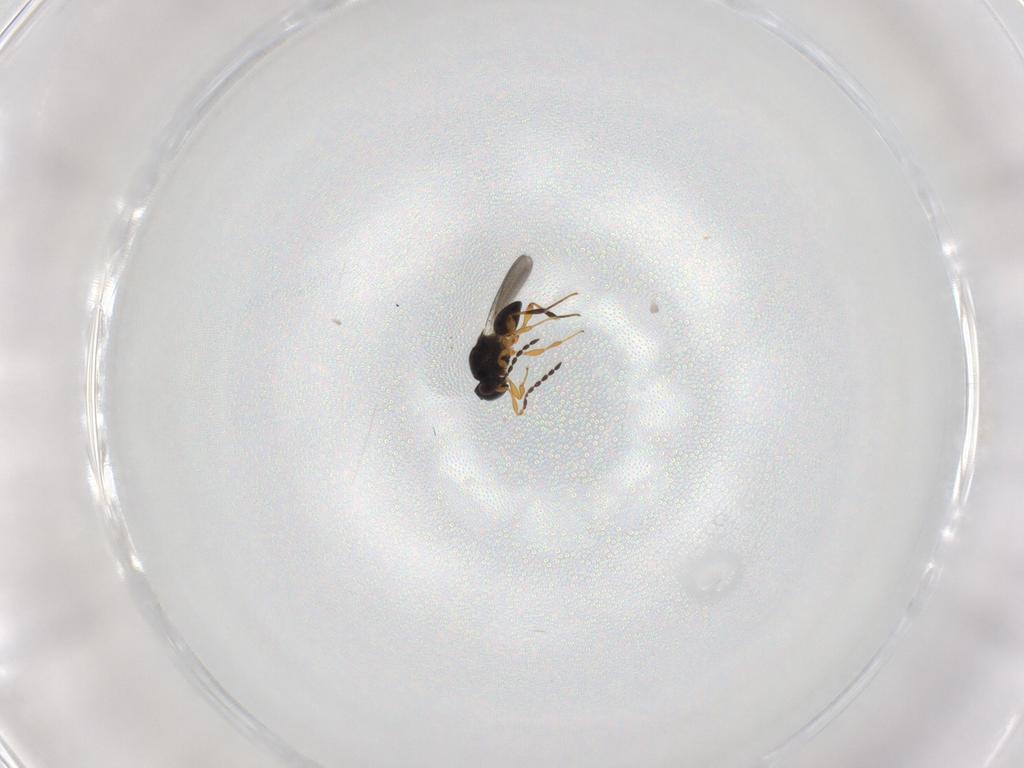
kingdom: Animalia
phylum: Arthropoda
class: Insecta
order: Hymenoptera
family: Platygastridae
